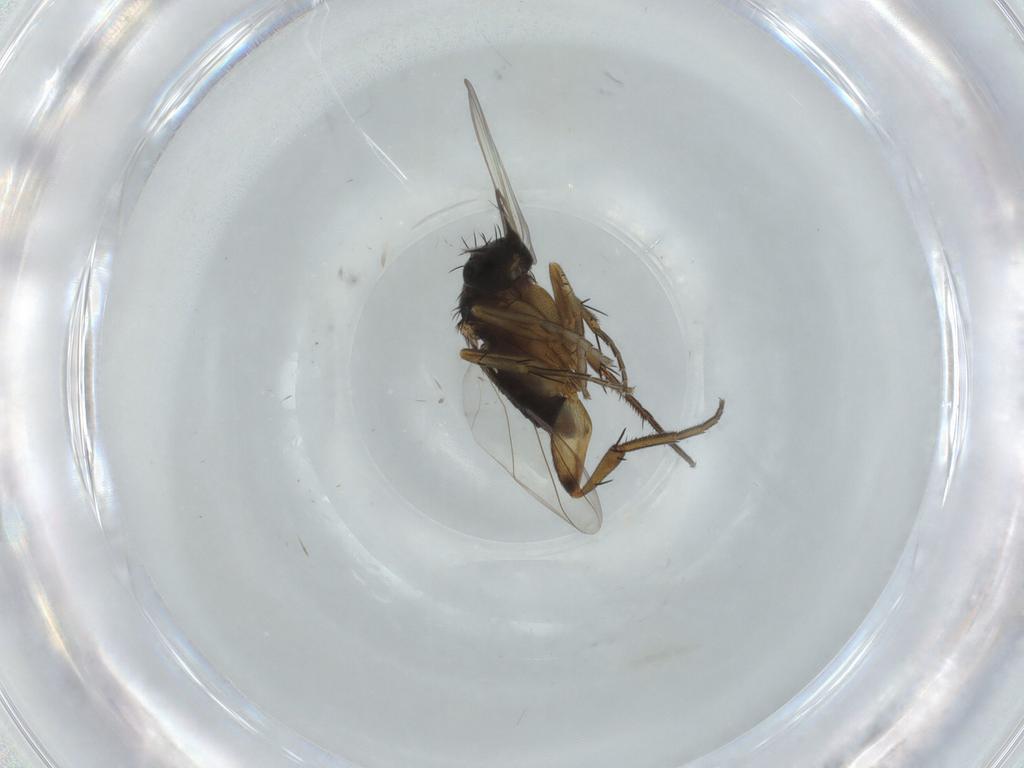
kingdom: Animalia
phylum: Arthropoda
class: Insecta
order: Diptera
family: Phoridae
